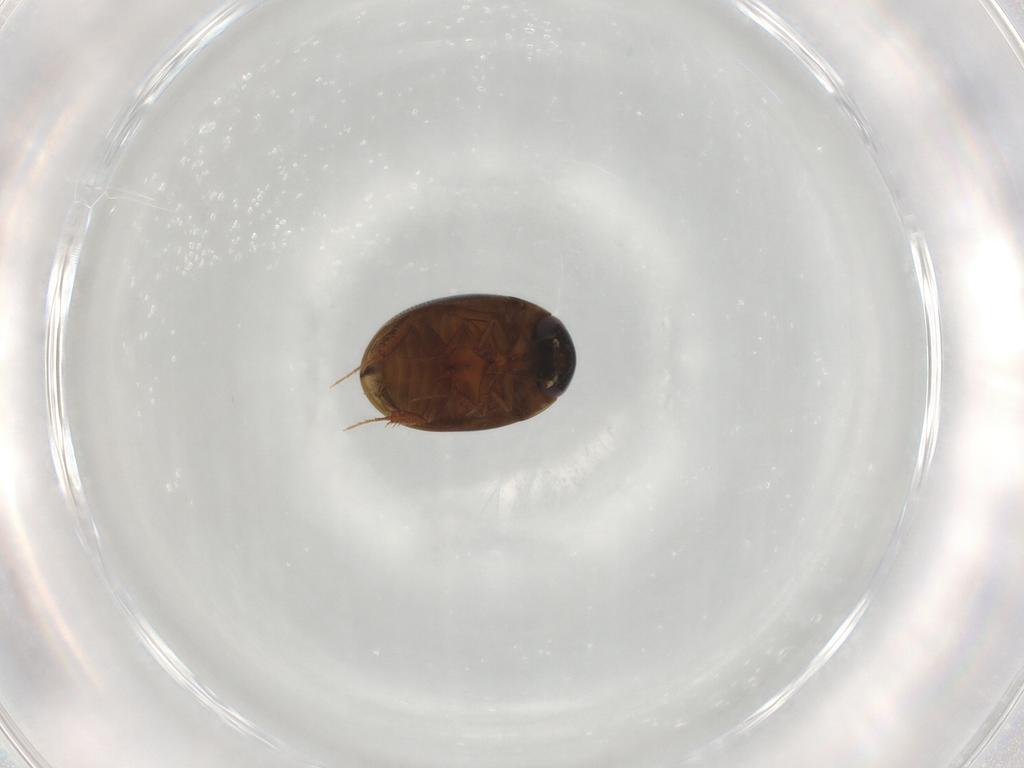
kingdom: Animalia
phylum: Arthropoda
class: Insecta
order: Coleoptera
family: Hydrophilidae
